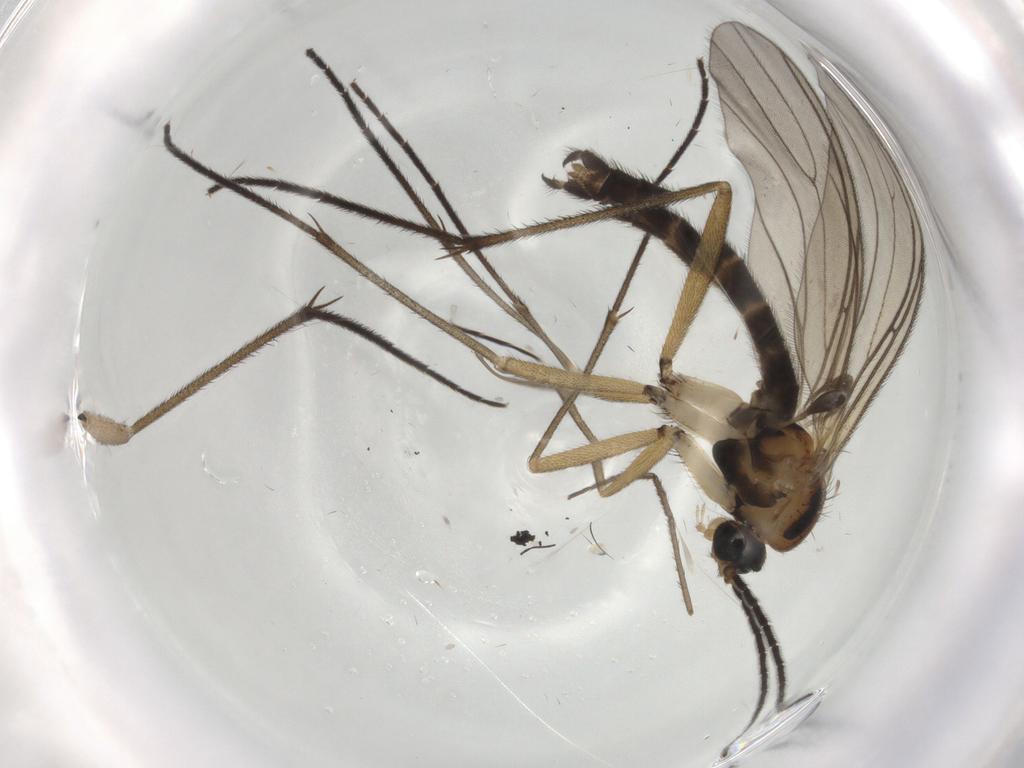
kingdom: Animalia
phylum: Arthropoda
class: Insecta
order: Diptera
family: Sciaridae
